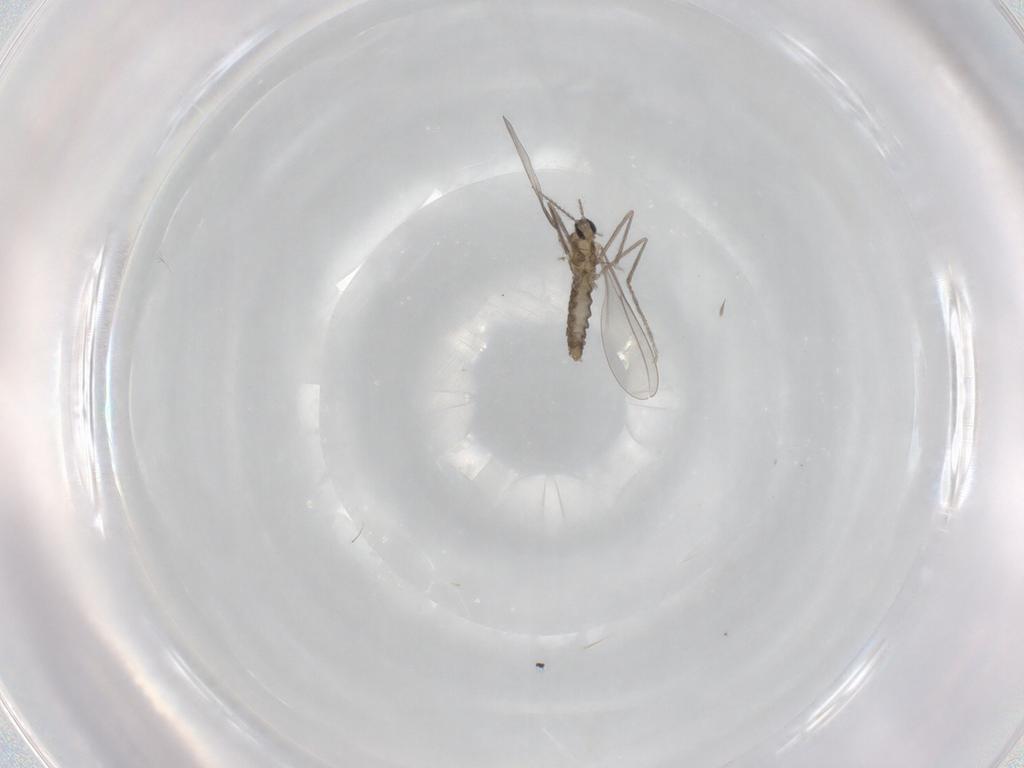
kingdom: Animalia
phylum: Arthropoda
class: Insecta
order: Diptera
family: Cecidomyiidae
